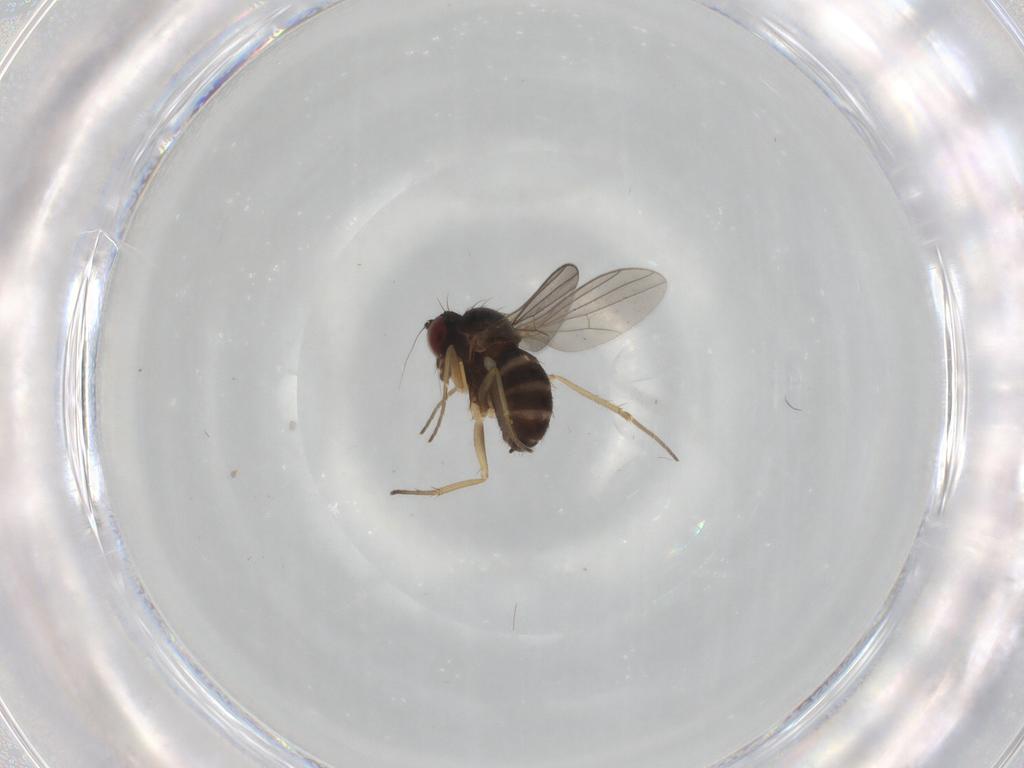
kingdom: Animalia
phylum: Arthropoda
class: Insecta
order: Diptera
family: Dolichopodidae
